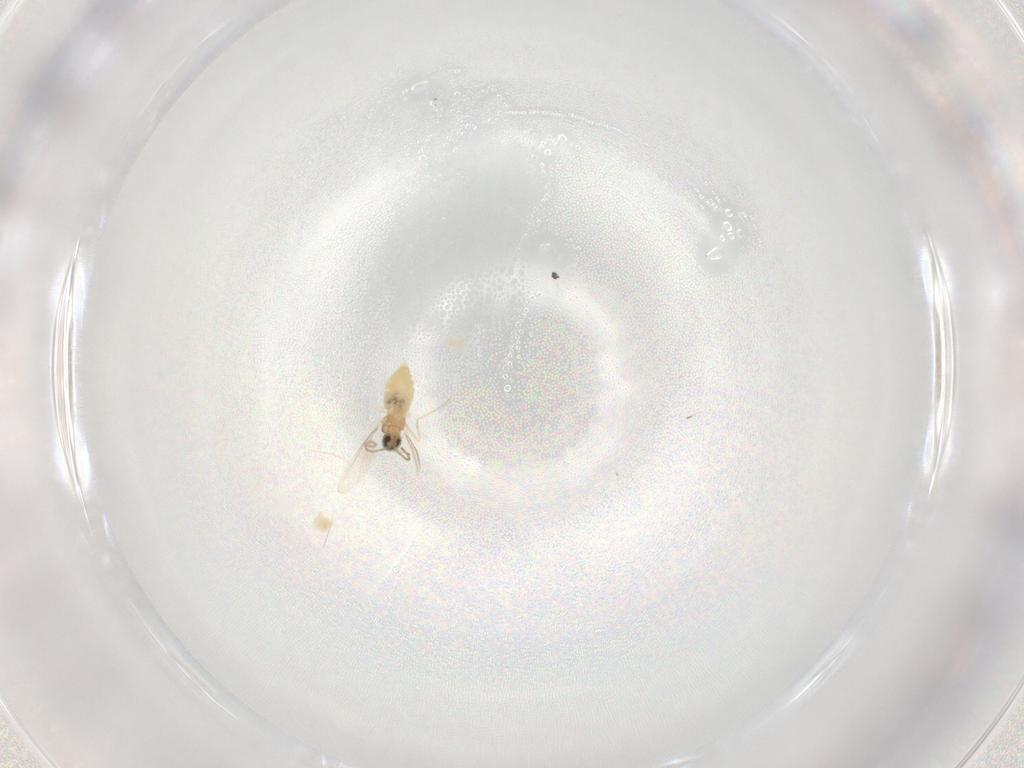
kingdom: Animalia
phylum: Arthropoda
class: Insecta
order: Diptera
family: Cecidomyiidae
